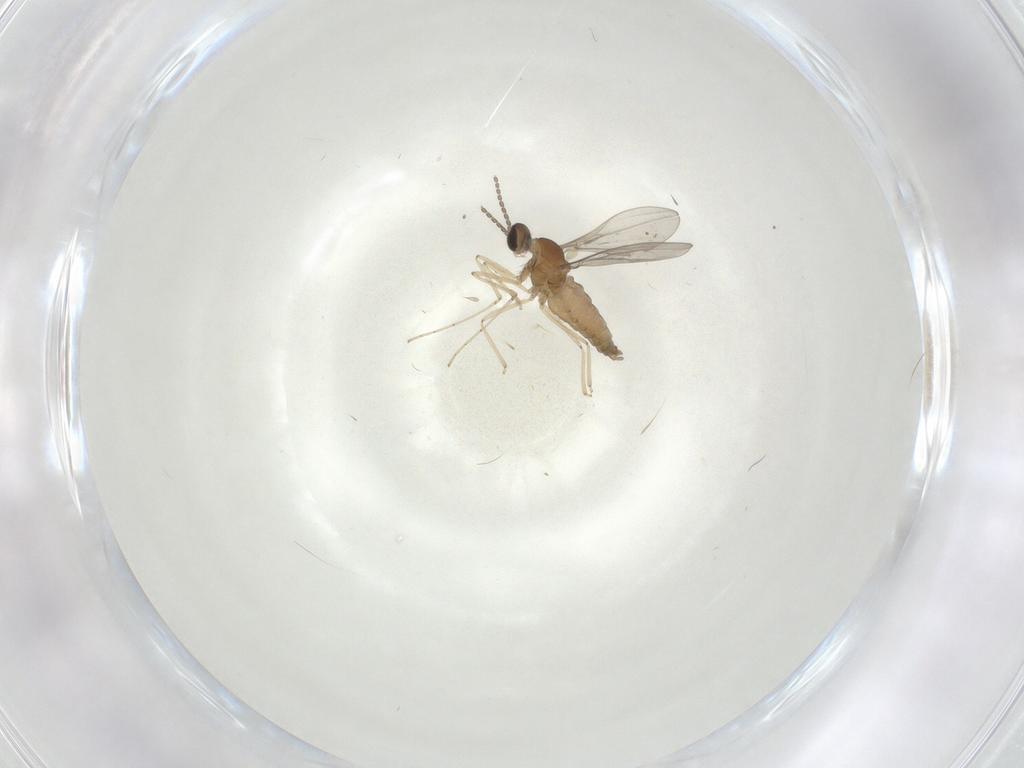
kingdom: Animalia
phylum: Arthropoda
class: Insecta
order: Diptera
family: Cecidomyiidae
